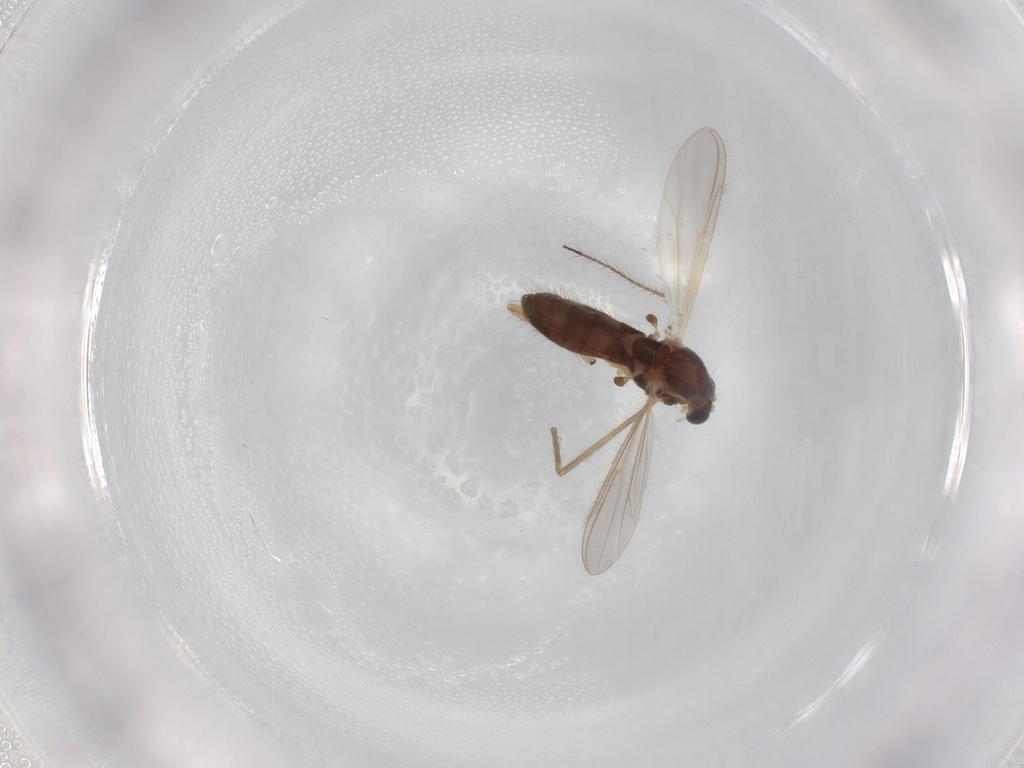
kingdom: Animalia
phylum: Arthropoda
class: Insecta
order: Diptera
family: Chironomidae
